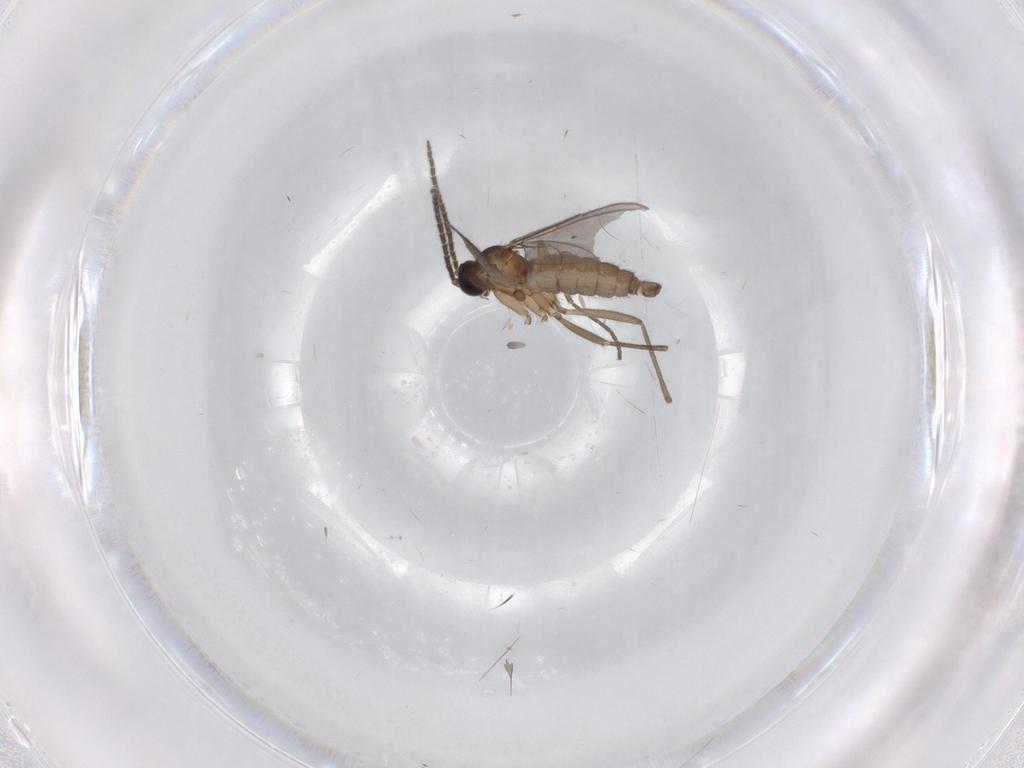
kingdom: Animalia
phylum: Arthropoda
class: Insecta
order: Diptera
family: Sciaridae
